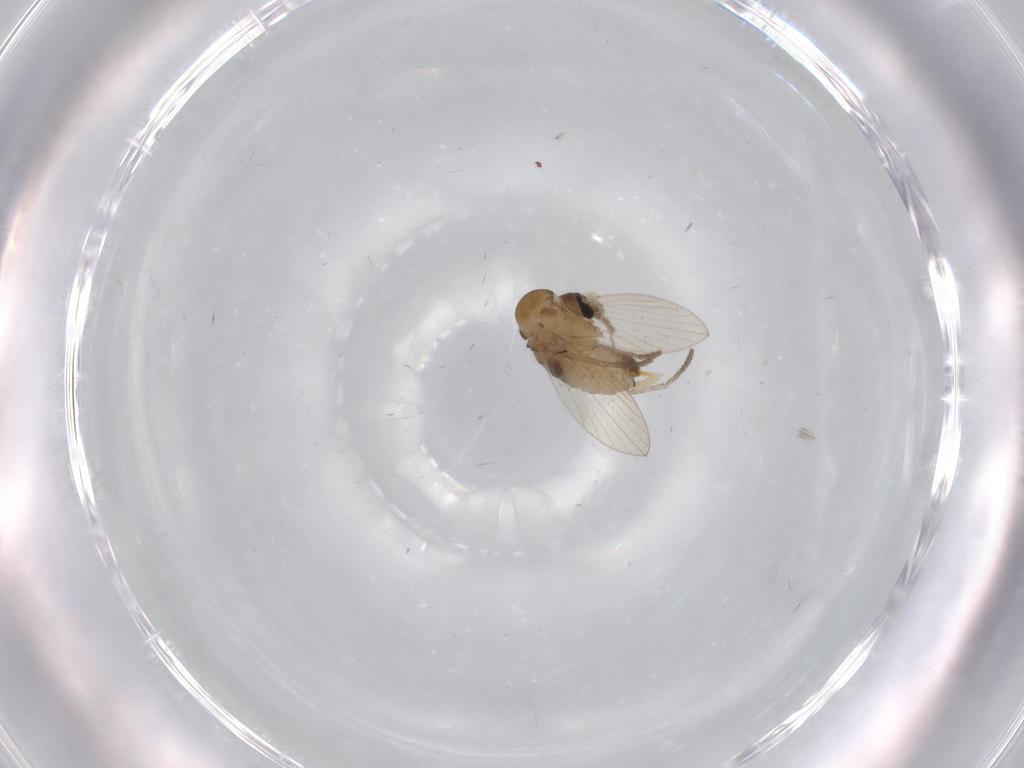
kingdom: Animalia
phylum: Arthropoda
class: Insecta
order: Diptera
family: Psychodidae
